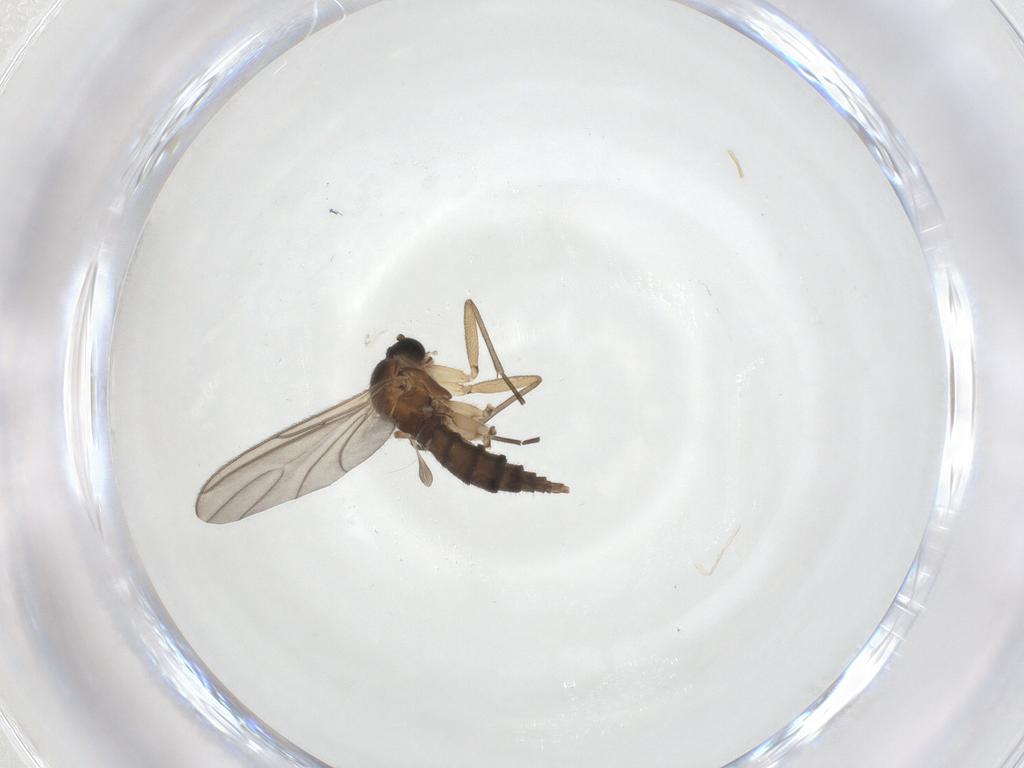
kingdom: Animalia
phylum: Arthropoda
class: Insecta
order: Diptera
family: Sciaridae
